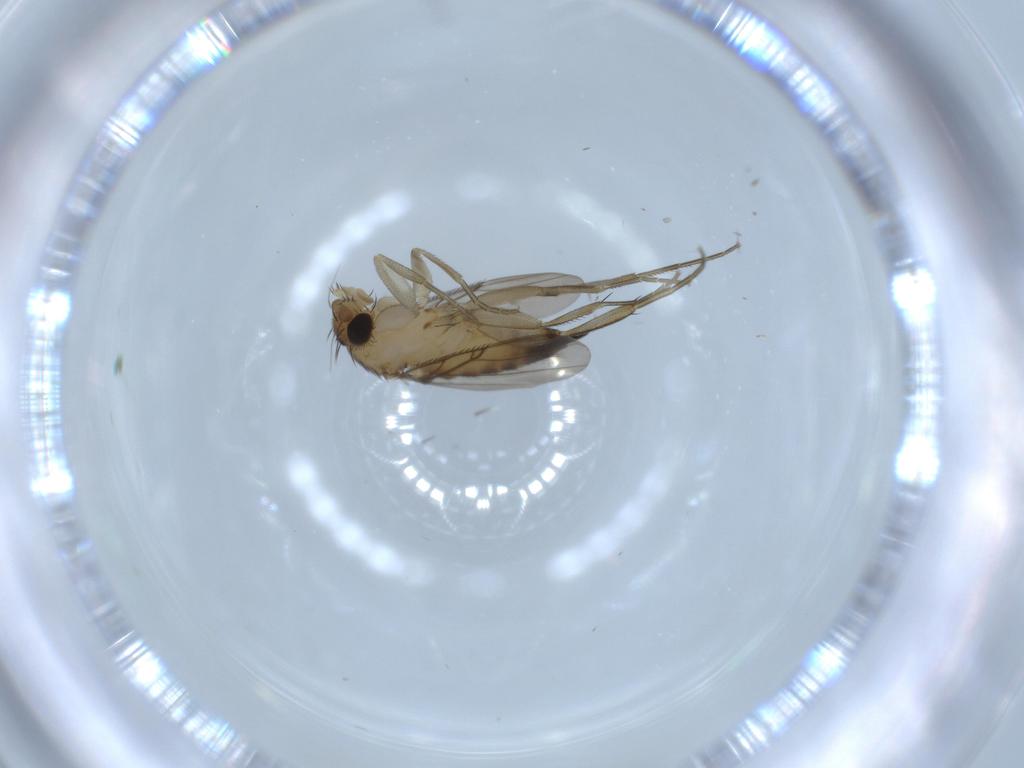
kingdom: Animalia
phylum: Arthropoda
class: Insecta
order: Diptera
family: Phoridae
